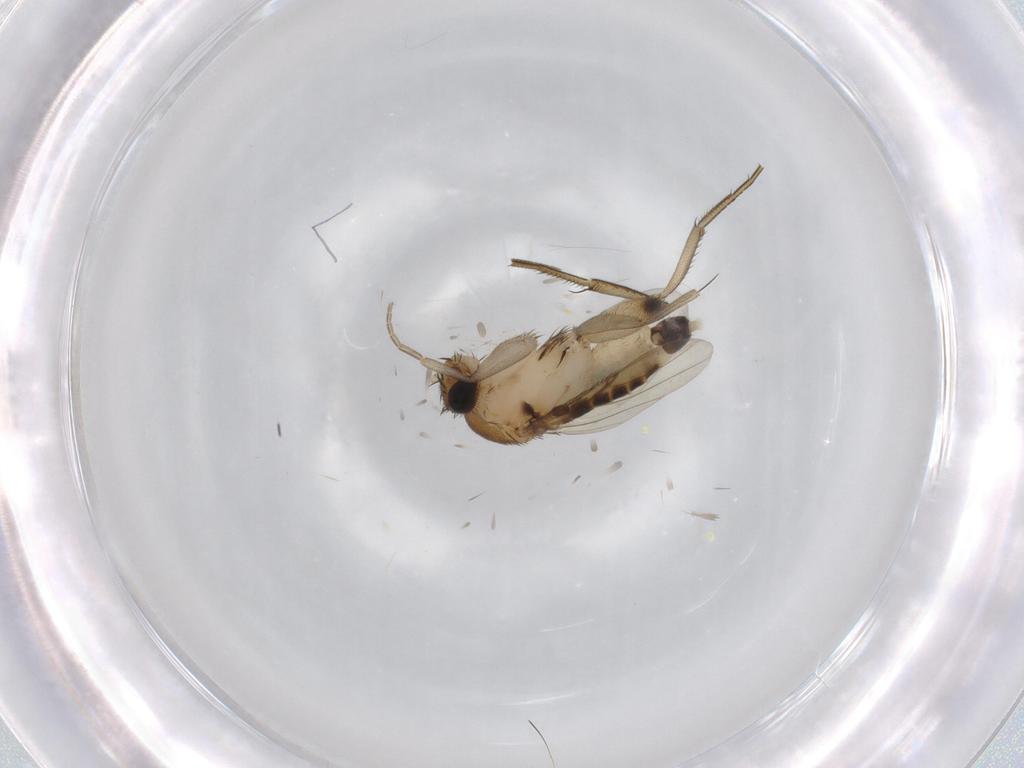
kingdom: Animalia
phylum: Arthropoda
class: Insecta
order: Diptera
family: Phoridae
